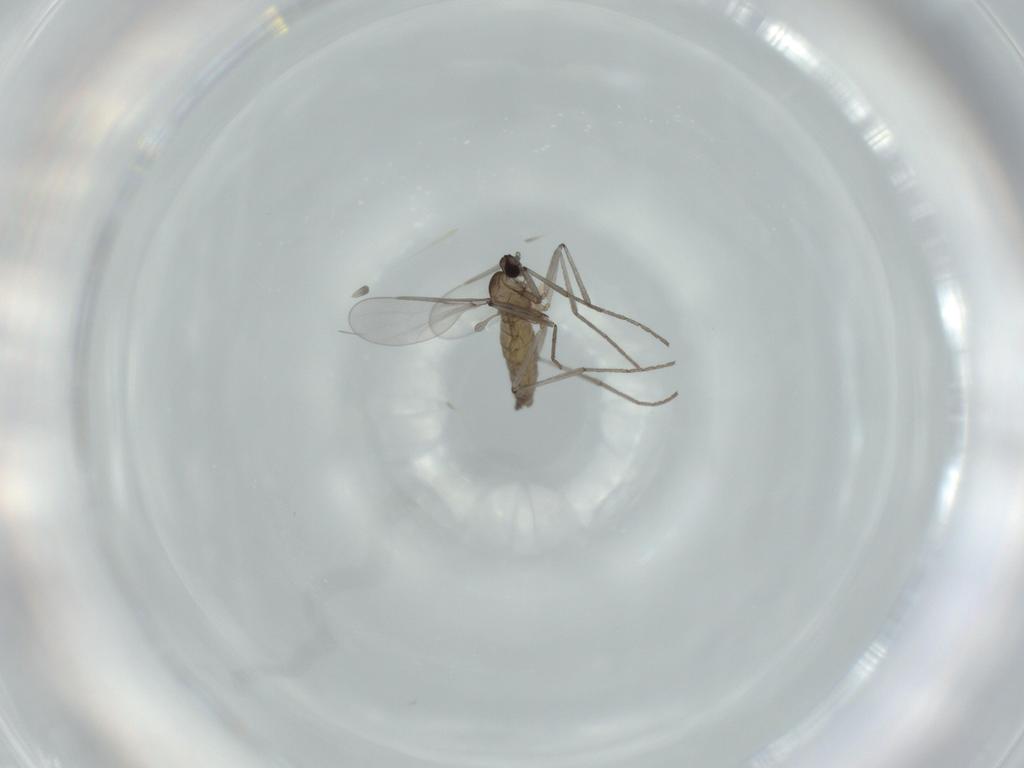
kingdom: Animalia
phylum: Arthropoda
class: Insecta
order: Diptera
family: Cecidomyiidae
